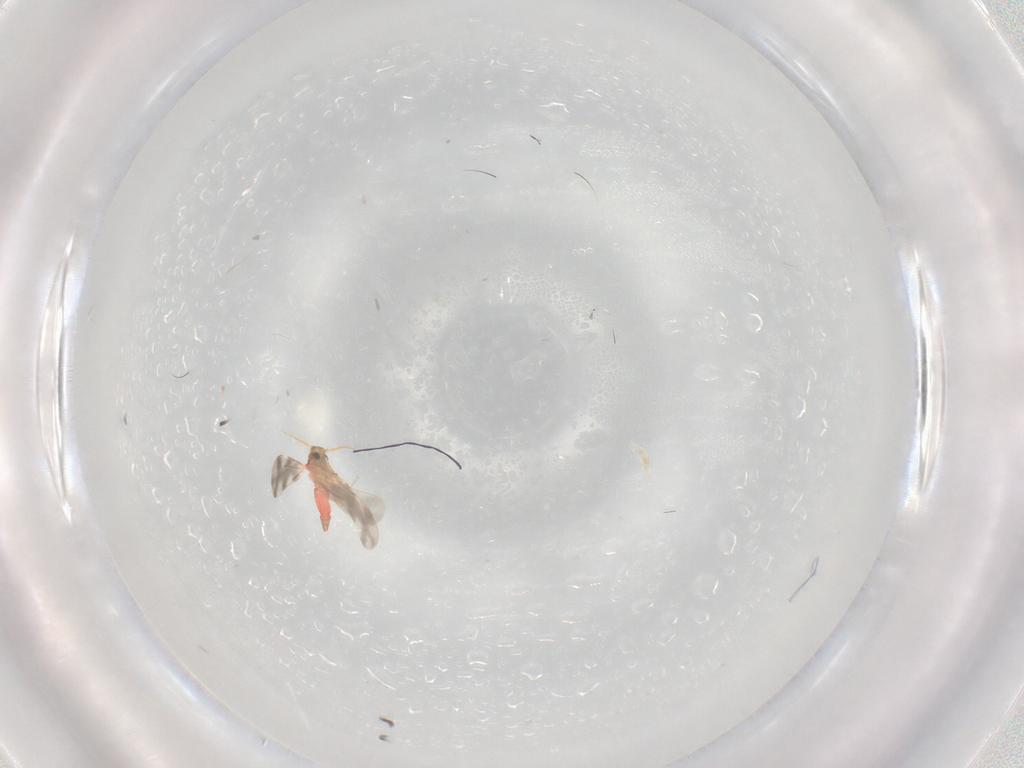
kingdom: Animalia
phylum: Arthropoda
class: Insecta
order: Hemiptera
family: Aleyrodidae
